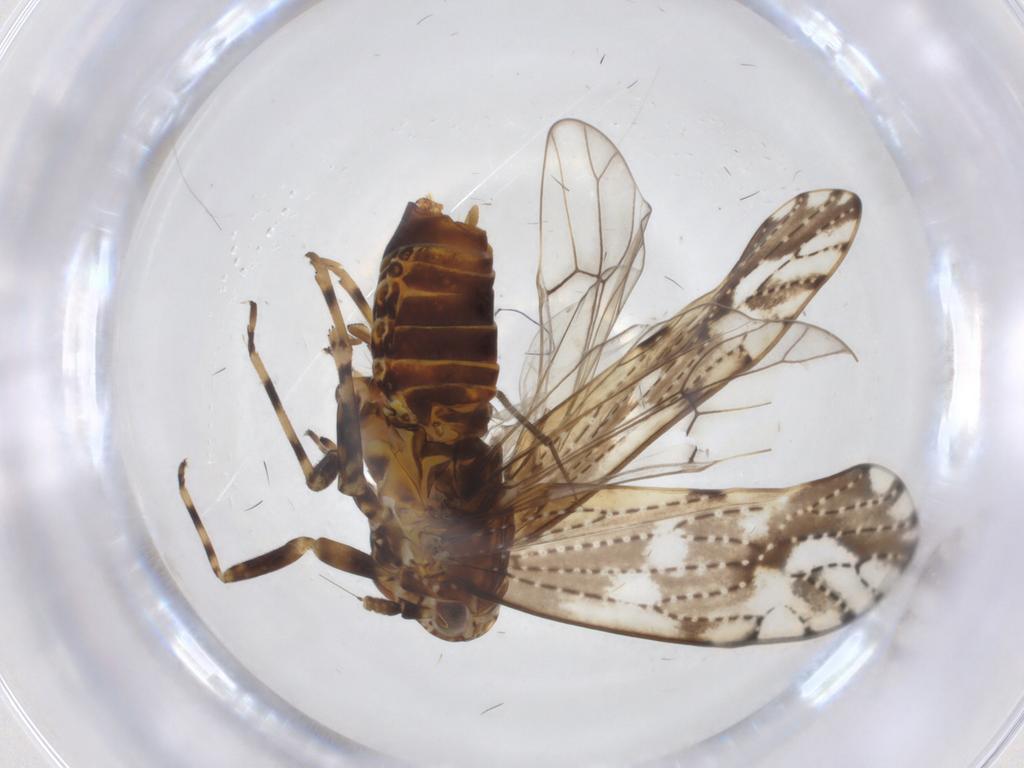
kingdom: Animalia
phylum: Arthropoda
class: Insecta
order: Hemiptera
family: Delphacidae
